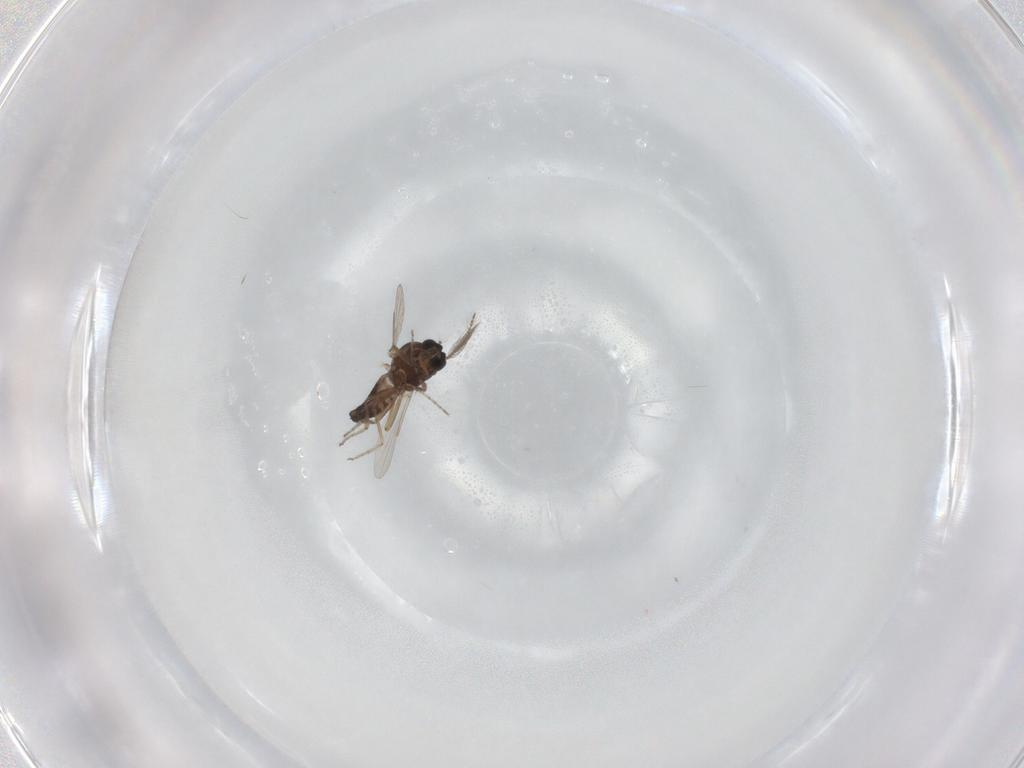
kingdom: Animalia
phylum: Arthropoda
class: Insecta
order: Diptera
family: Ceratopogonidae
